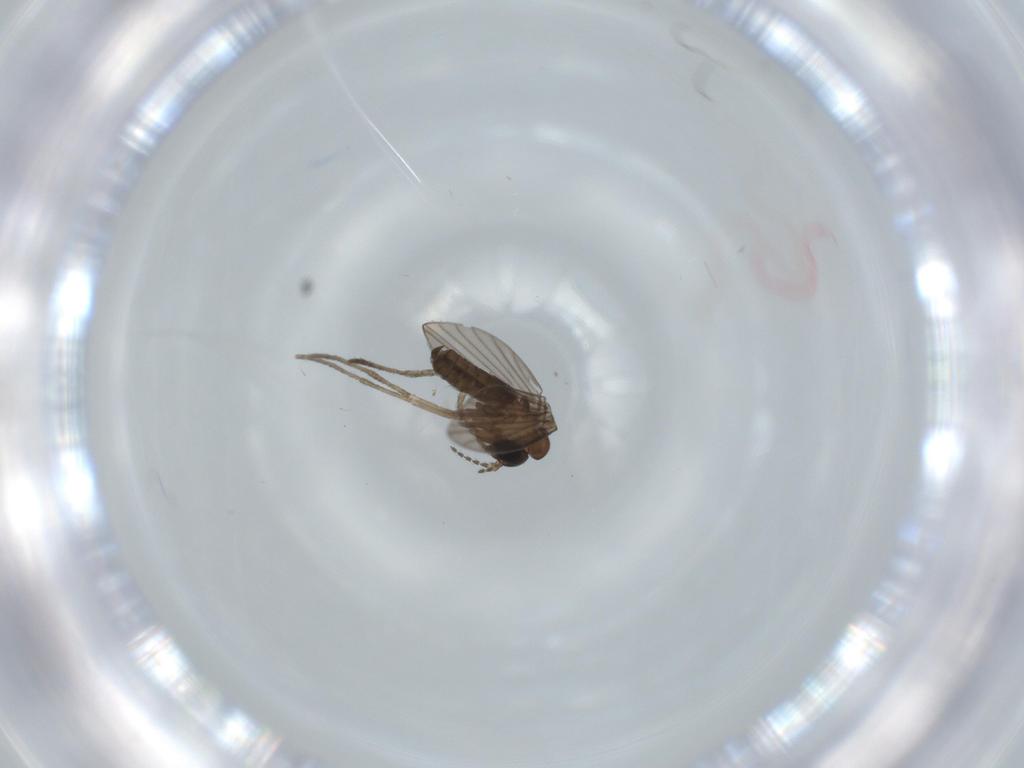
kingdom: Animalia
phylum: Arthropoda
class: Insecta
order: Diptera
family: Psychodidae
